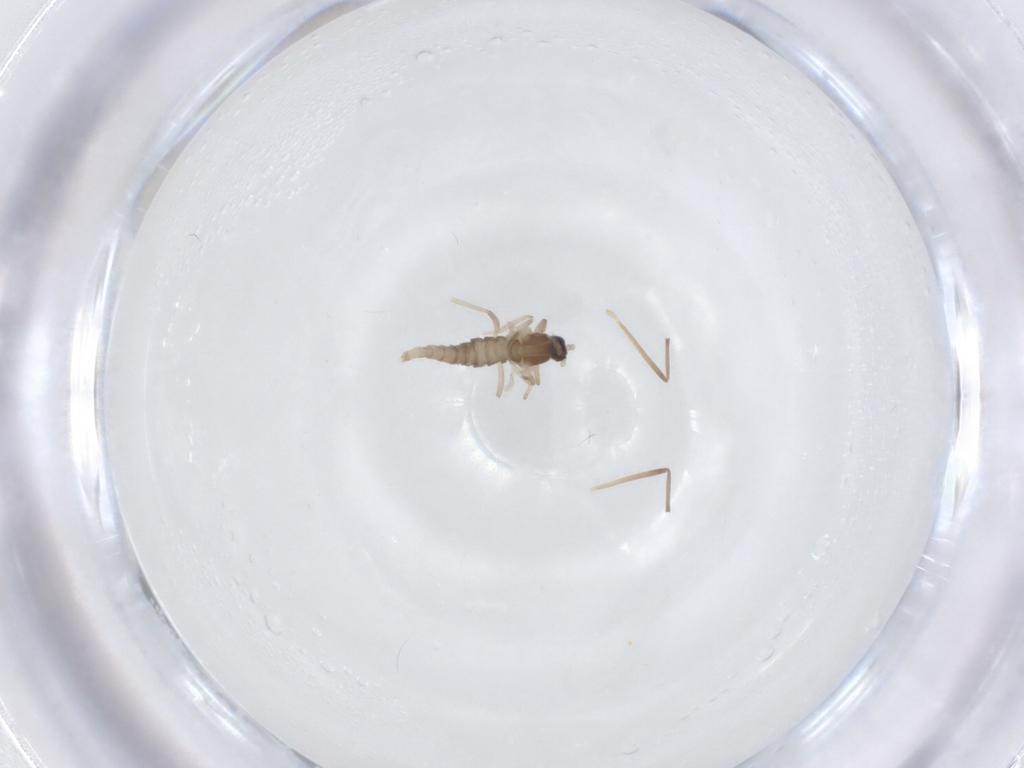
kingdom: Animalia
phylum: Arthropoda
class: Insecta
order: Diptera
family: Chironomidae
